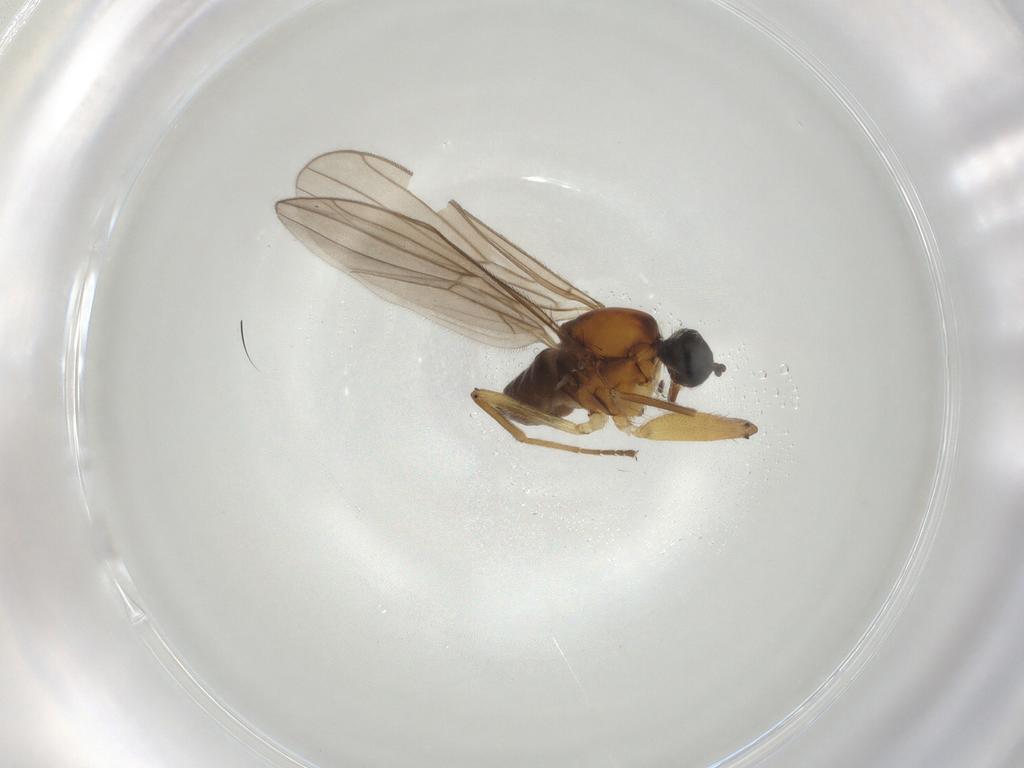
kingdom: Animalia
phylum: Arthropoda
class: Insecta
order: Diptera
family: Hybotidae
